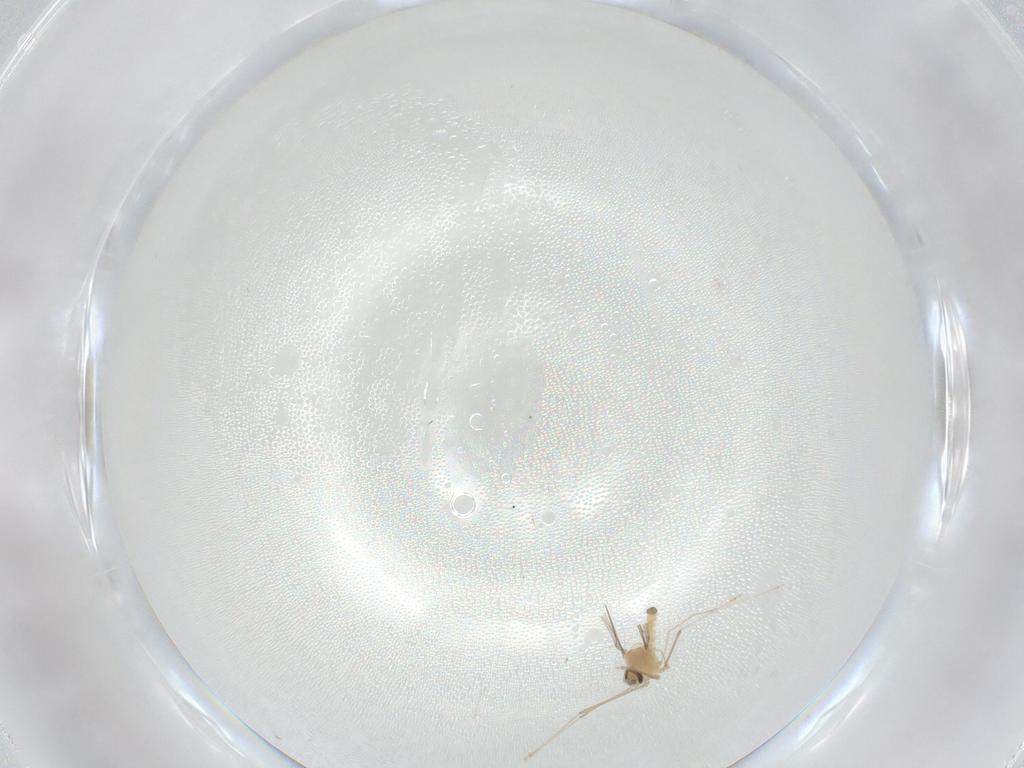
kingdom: Animalia
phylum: Arthropoda
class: Insecta
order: Diptera
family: Cecidomyiidae
